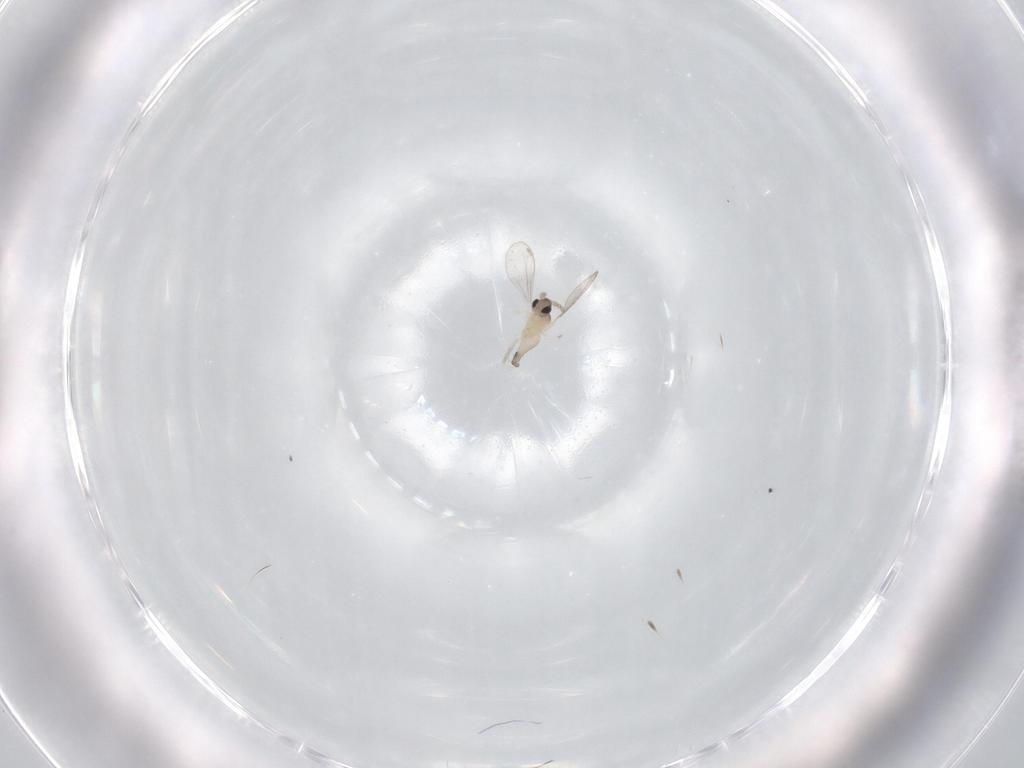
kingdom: Animalia
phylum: Arthropoda
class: Insecta
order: Diptera
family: Cecidomyiidae
